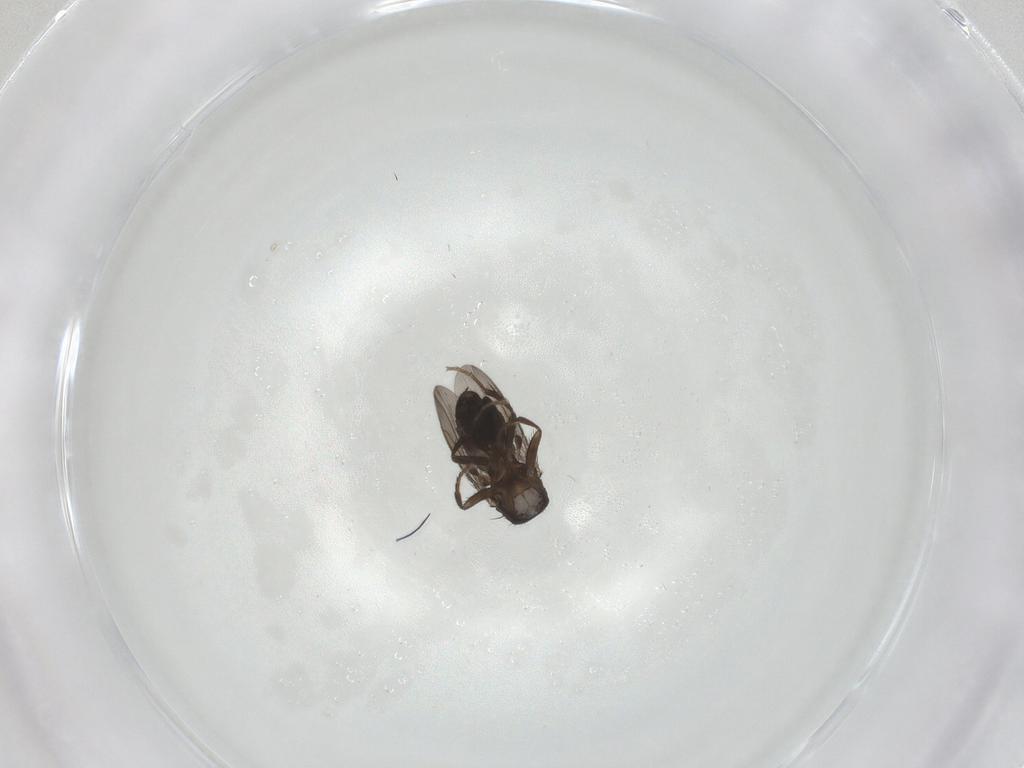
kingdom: Animalia
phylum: Arthropoda
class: Insecta
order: Diptera
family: Sphaeroceridae
